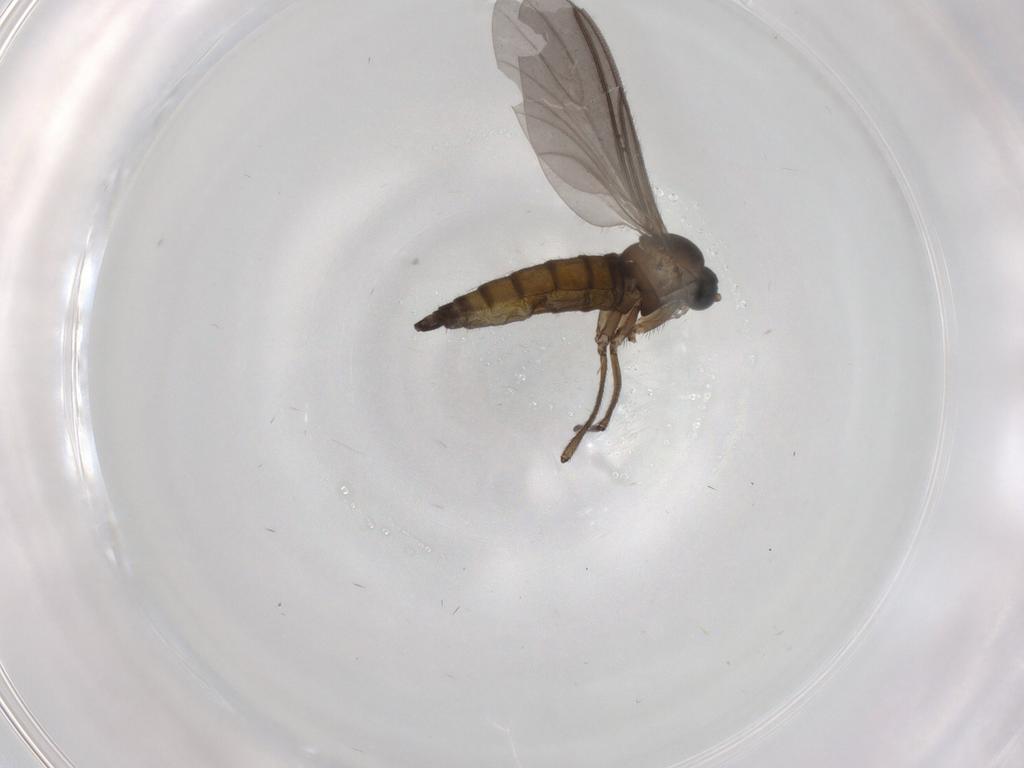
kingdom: Animalia
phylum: Arthropoda
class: Insecta
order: Diptera
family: Sciaridae
